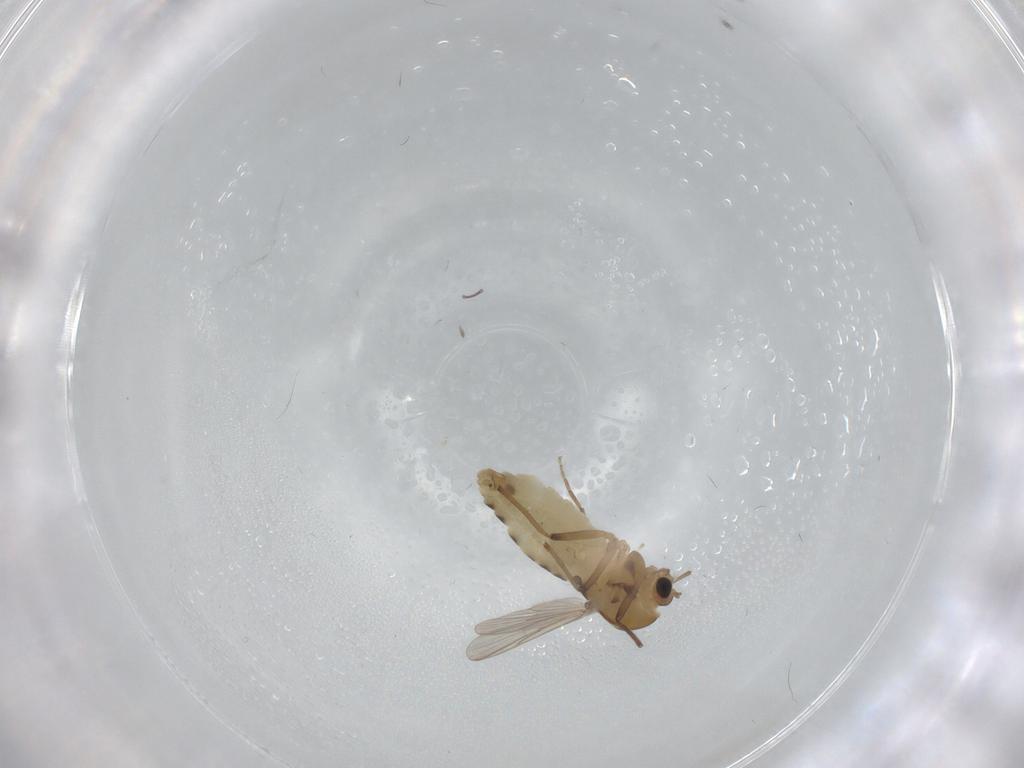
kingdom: Animalia
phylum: Arthropoda
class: Insecta
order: Diptera
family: Chironomidae
